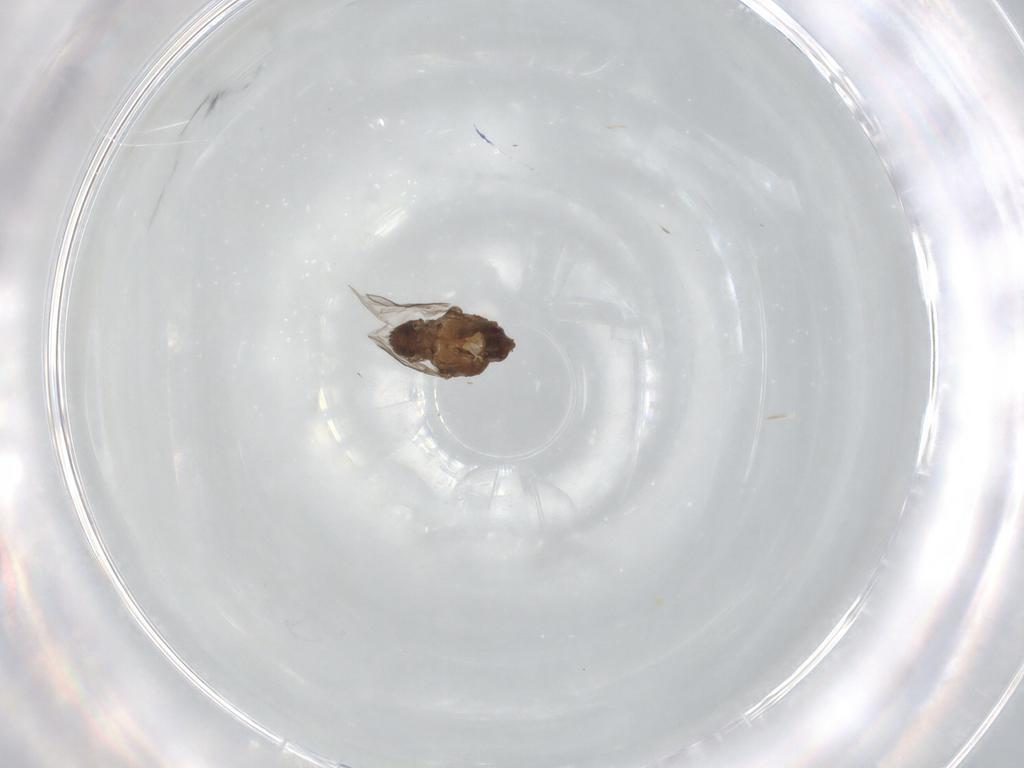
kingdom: Animalia
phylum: Arthropoda
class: Insecta
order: Diptera
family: Sphaeroceridae
